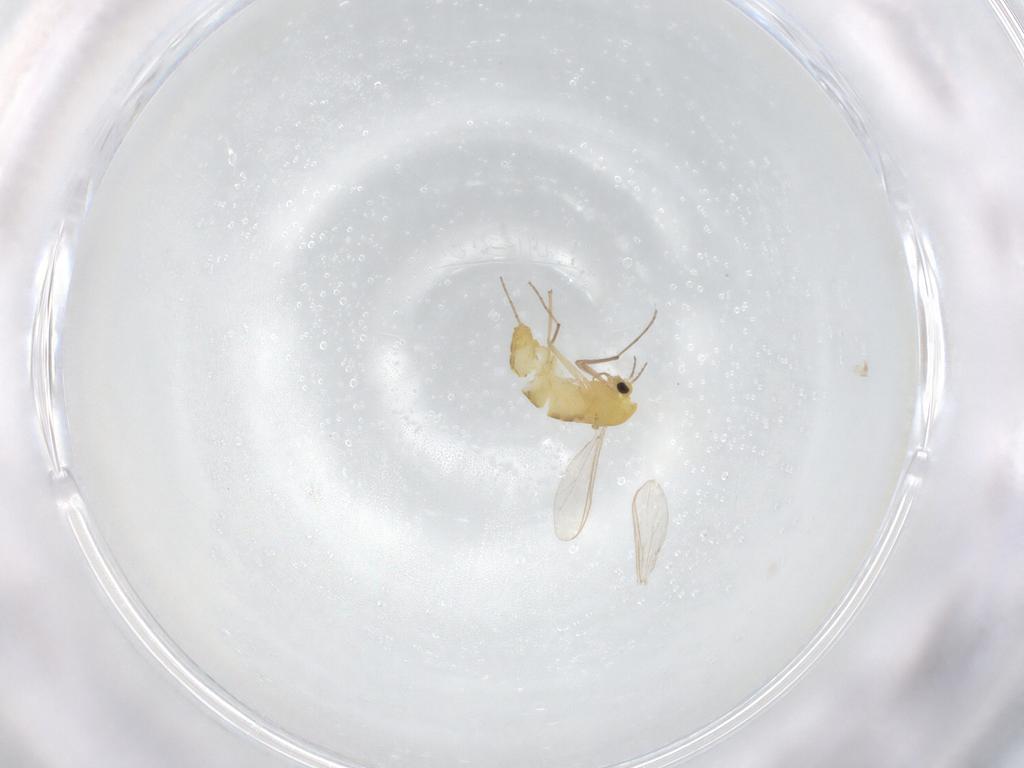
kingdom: Animalia
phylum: Arthropoda
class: Insecta
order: Diptera
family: Chironomidae
